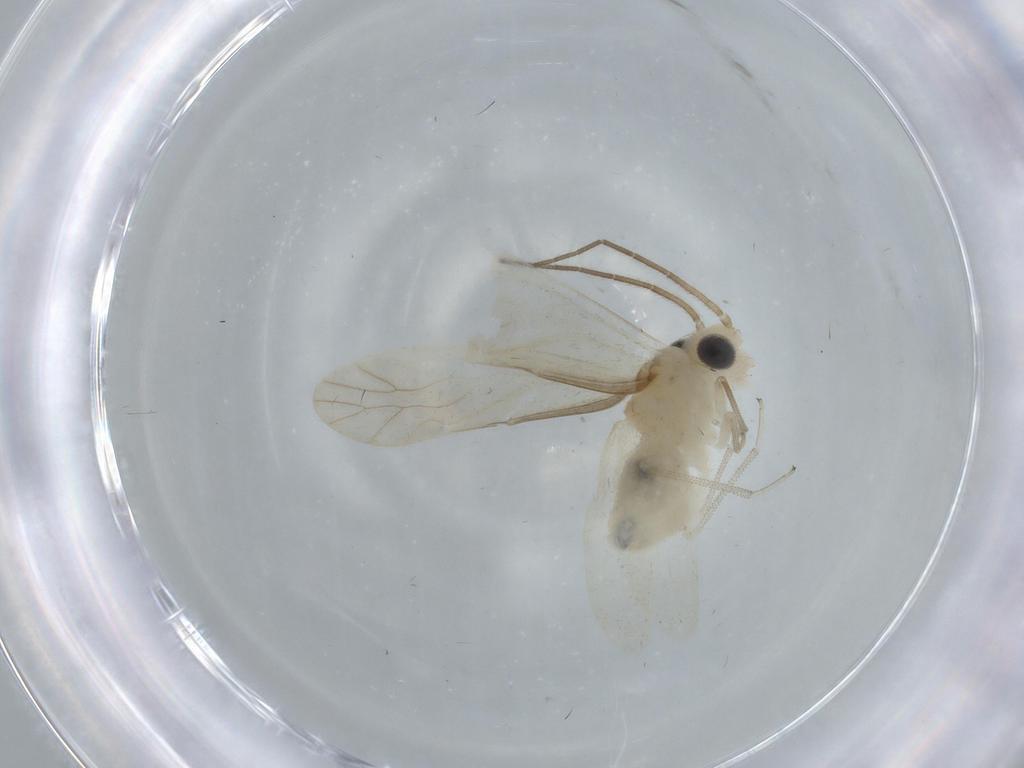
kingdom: Animalia
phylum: Arthropoda
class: Insecta
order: Psocodea
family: Caeciliusidae
